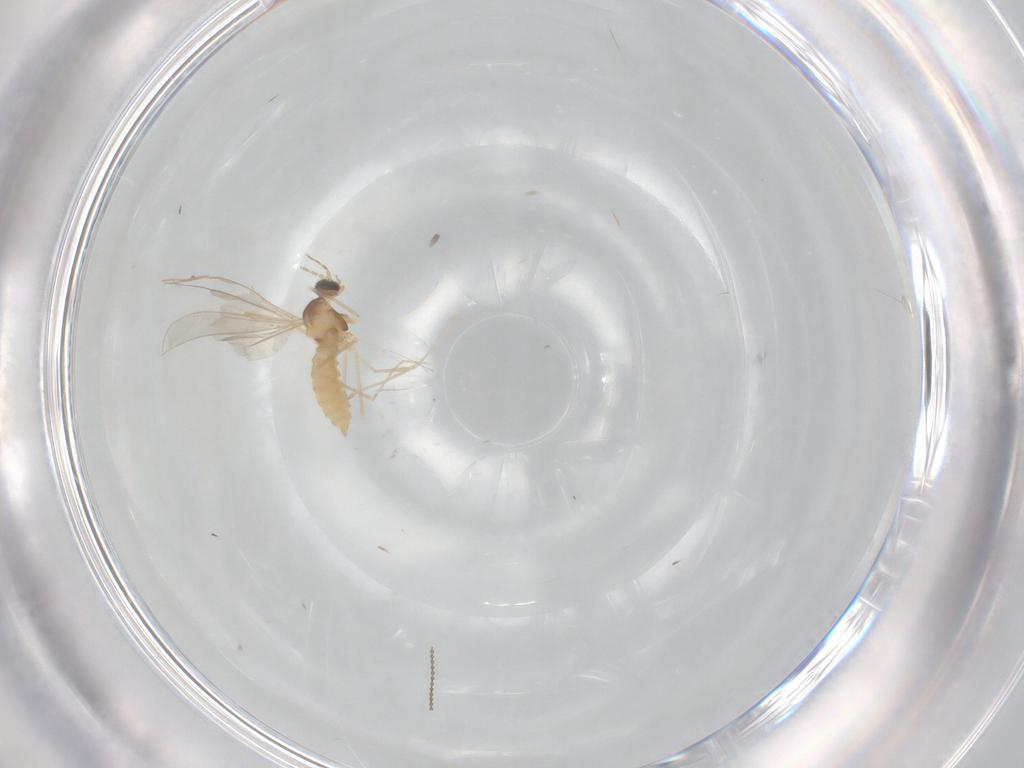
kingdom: Animalia
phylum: Arthropoda
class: Insecta
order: Diptera
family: Cecidomyiidae
